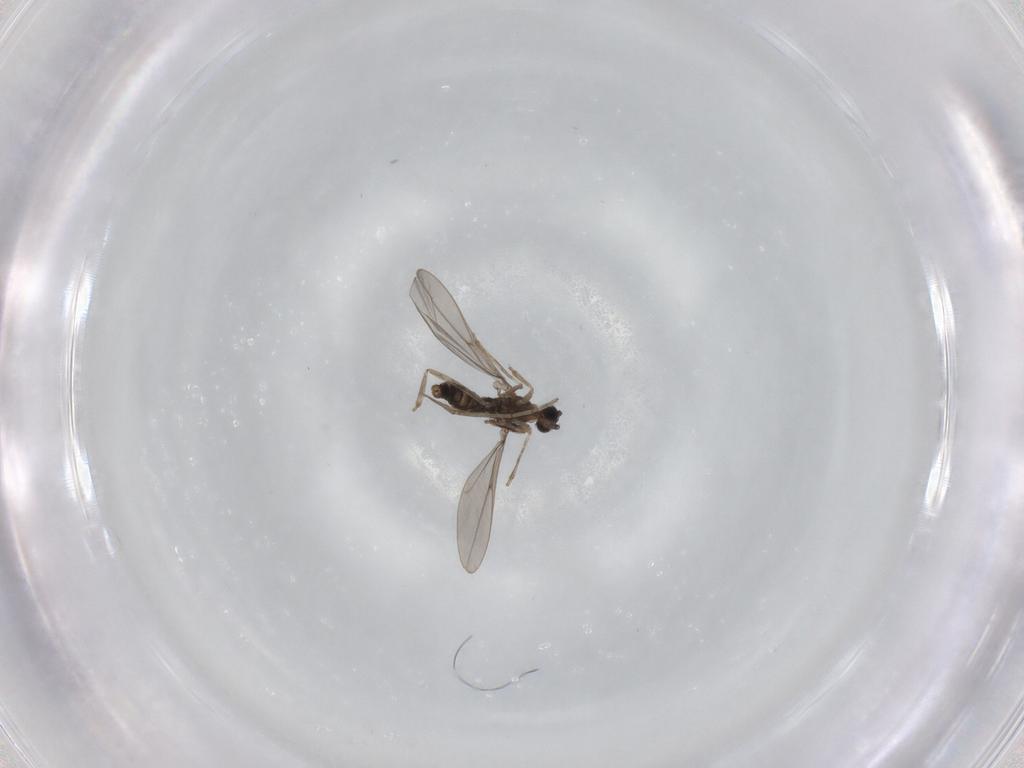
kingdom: Animalia
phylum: Arthropoda
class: Insecta
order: Diptera
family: Cecidomyiidae
